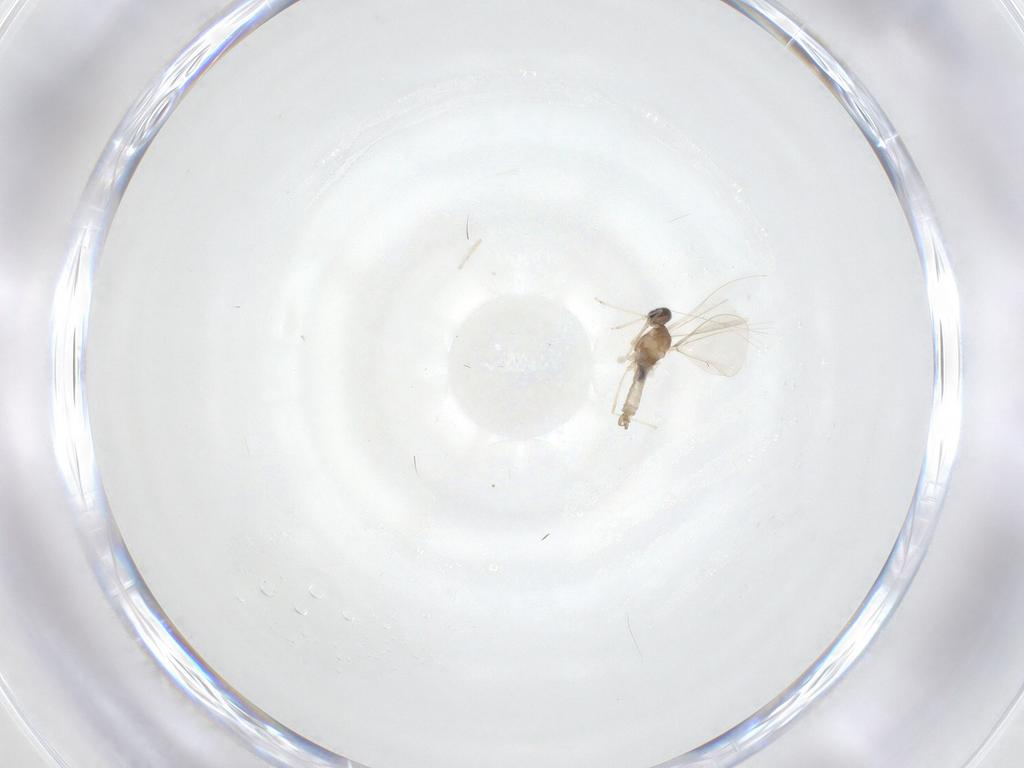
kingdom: Animalia
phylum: Arthropoda
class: Insecta
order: Diptera
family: Cecidomyiidae
